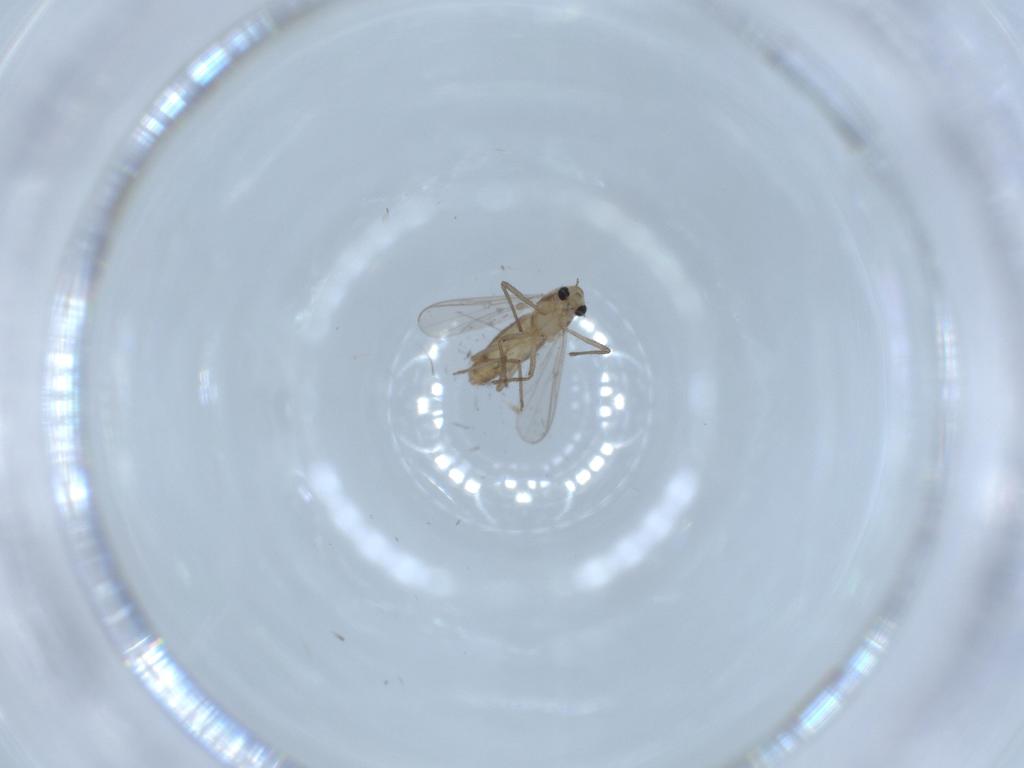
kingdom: Animalia
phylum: Arthropoda
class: Insecta
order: Diptera
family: Chironomidae
